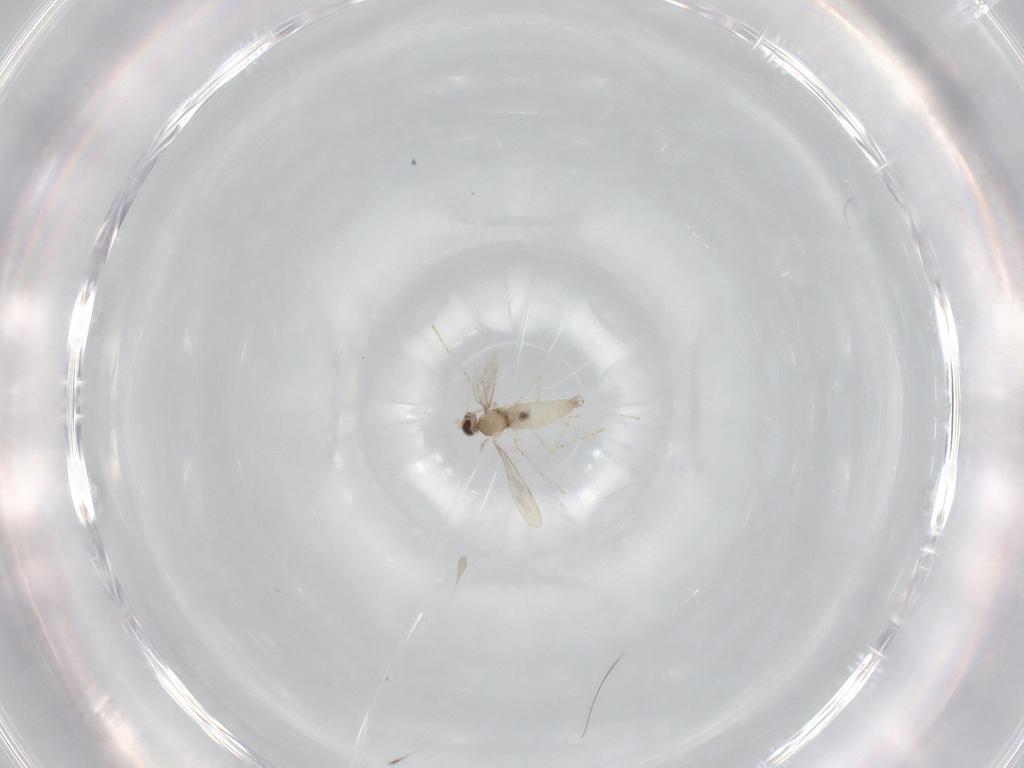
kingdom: Animalia
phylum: Arthropoda
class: Insecta
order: Diptera
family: Cecidomyiidae
